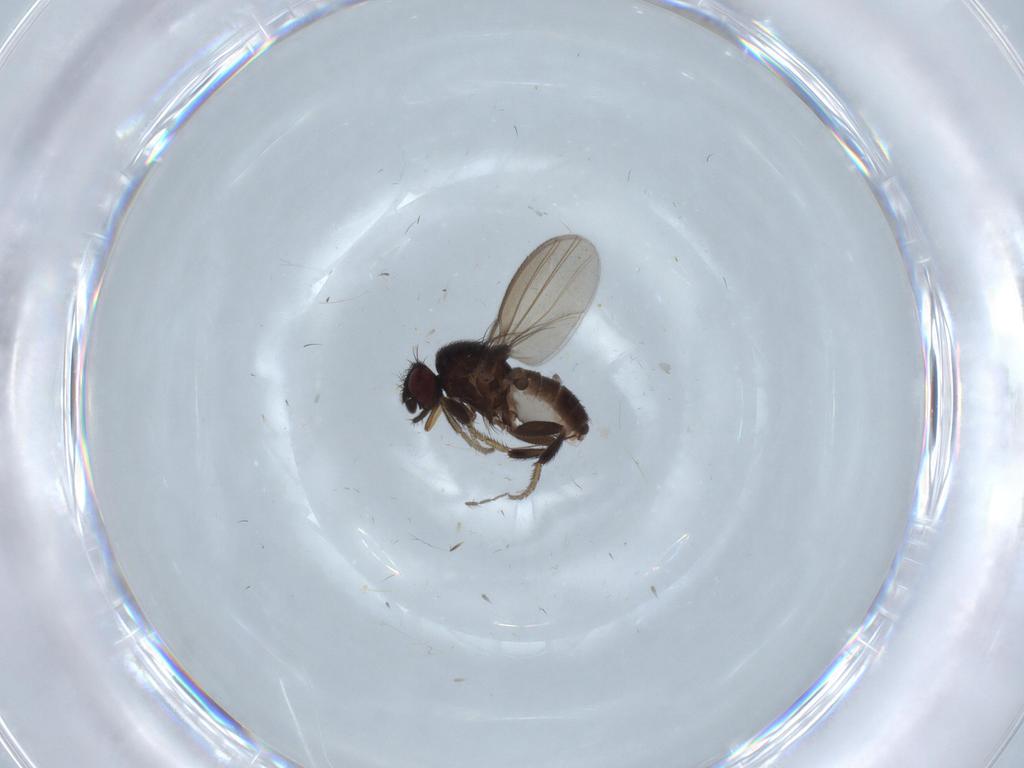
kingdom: Animalia
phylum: Arthropoda
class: Insecta
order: Diptera
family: Milichiidae
